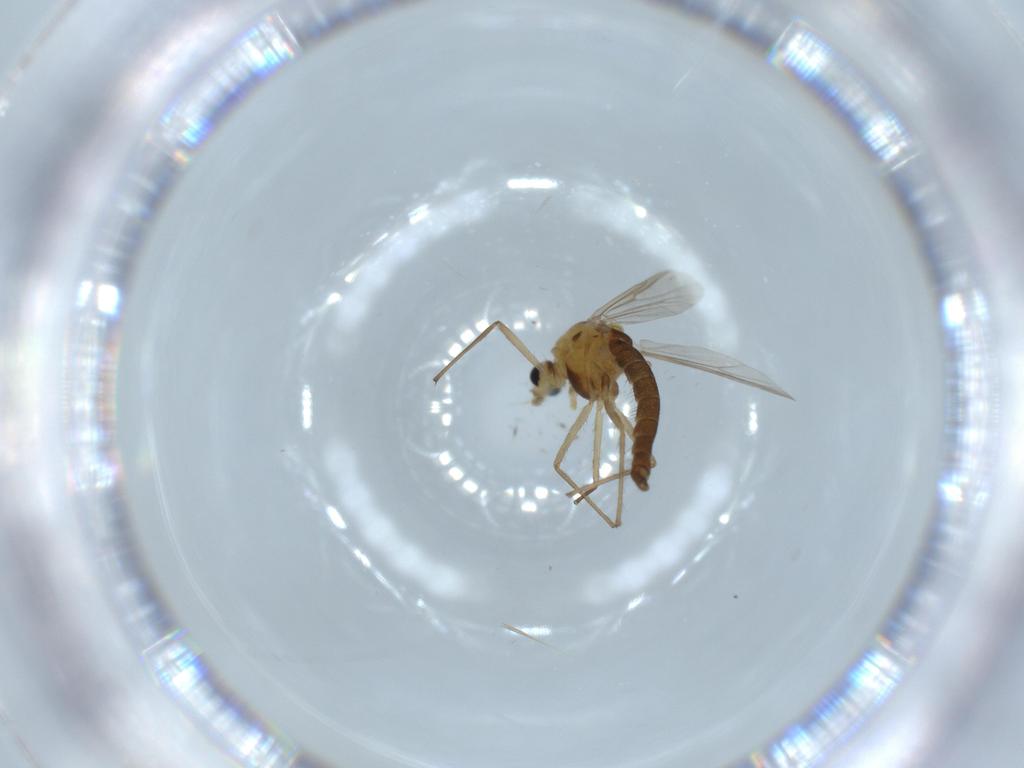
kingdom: Animalia
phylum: Arthropoda
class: Insecta
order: Diptera
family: Chironomidae
